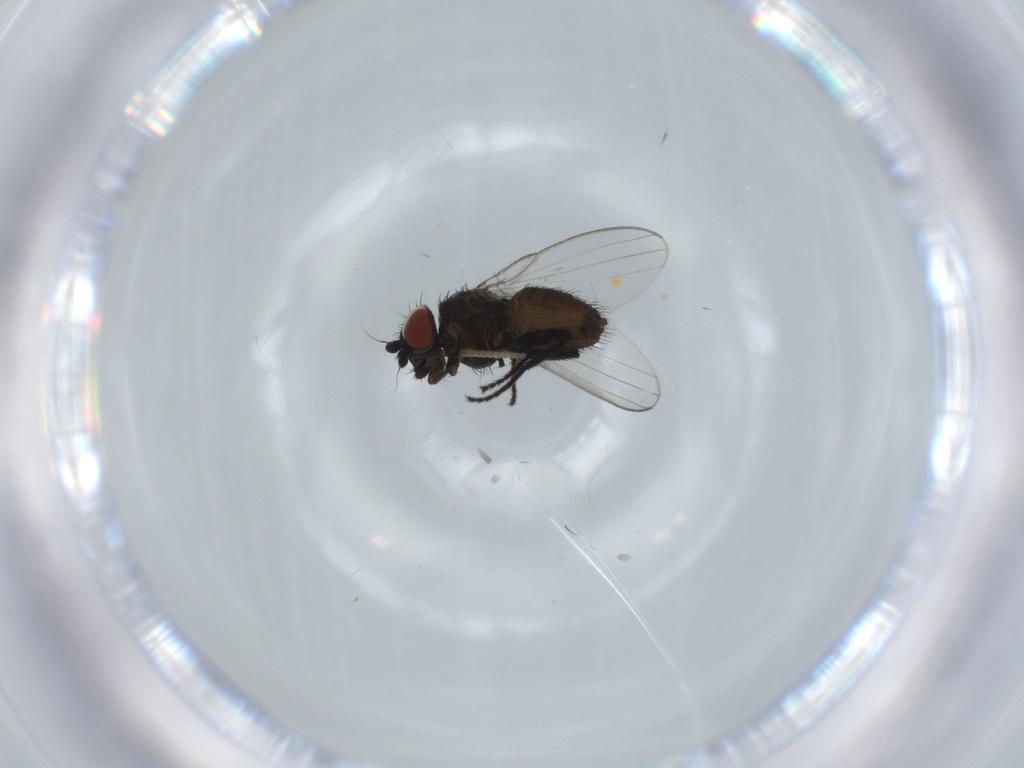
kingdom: Animalia
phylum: Arthropoda
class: Insecta
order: Diptera
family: Milichiidae
